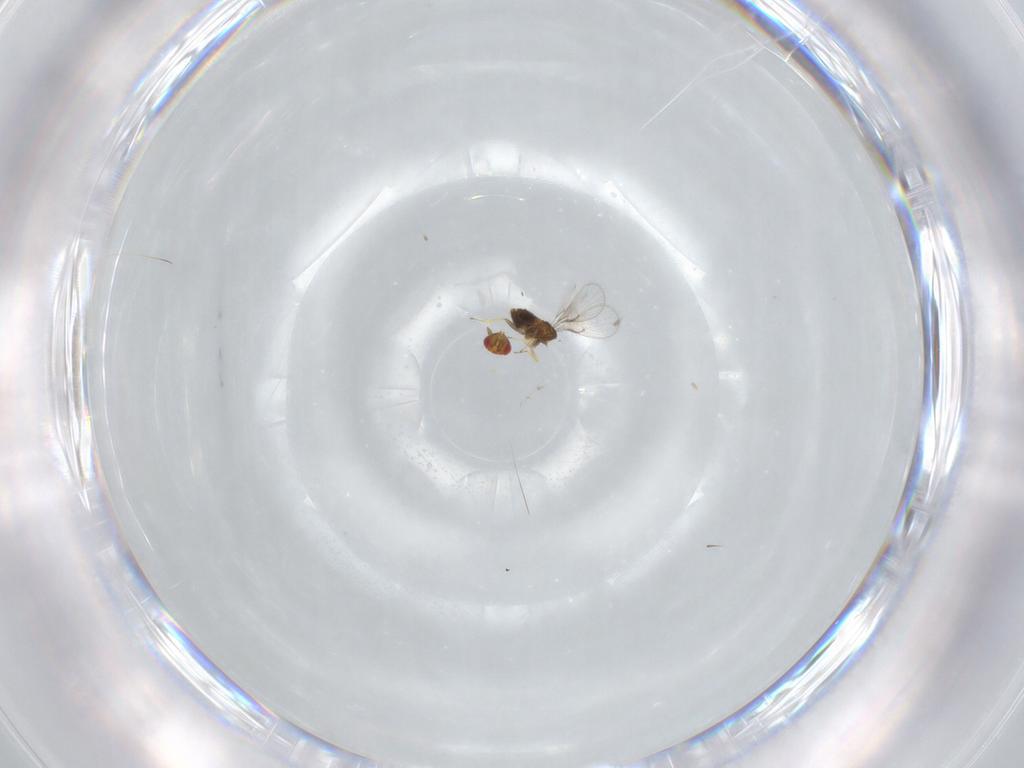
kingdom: Animalia
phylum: Arthropoda
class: Insecta
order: Hymenoptera
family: Trichogrammatidae
